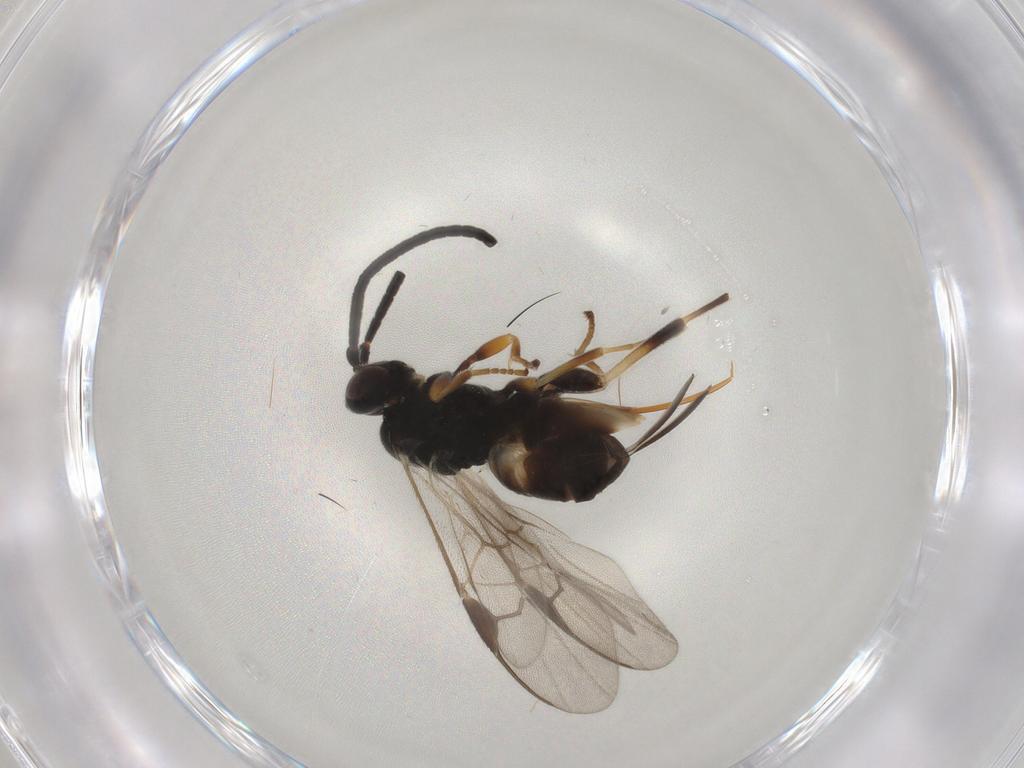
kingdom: Animalia
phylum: Arthropoda
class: Insecta
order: Hymenoptera
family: Braconidae
